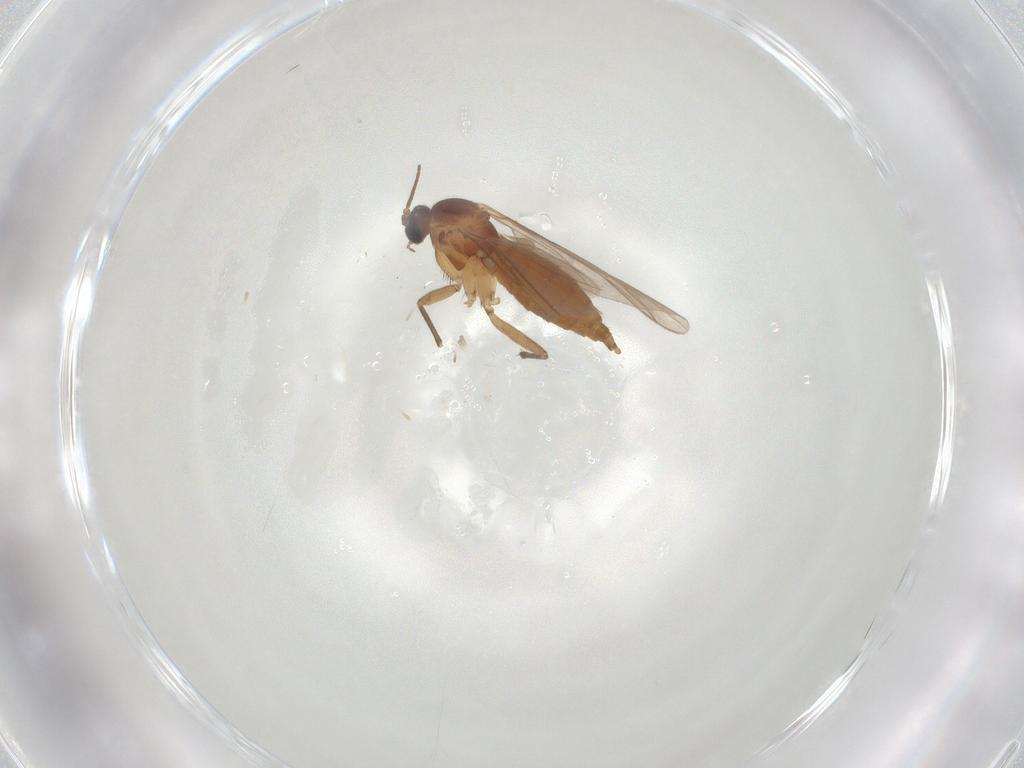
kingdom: Animalia
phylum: Arthropoda
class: Insecta
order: Diptera
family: Sciaridae
